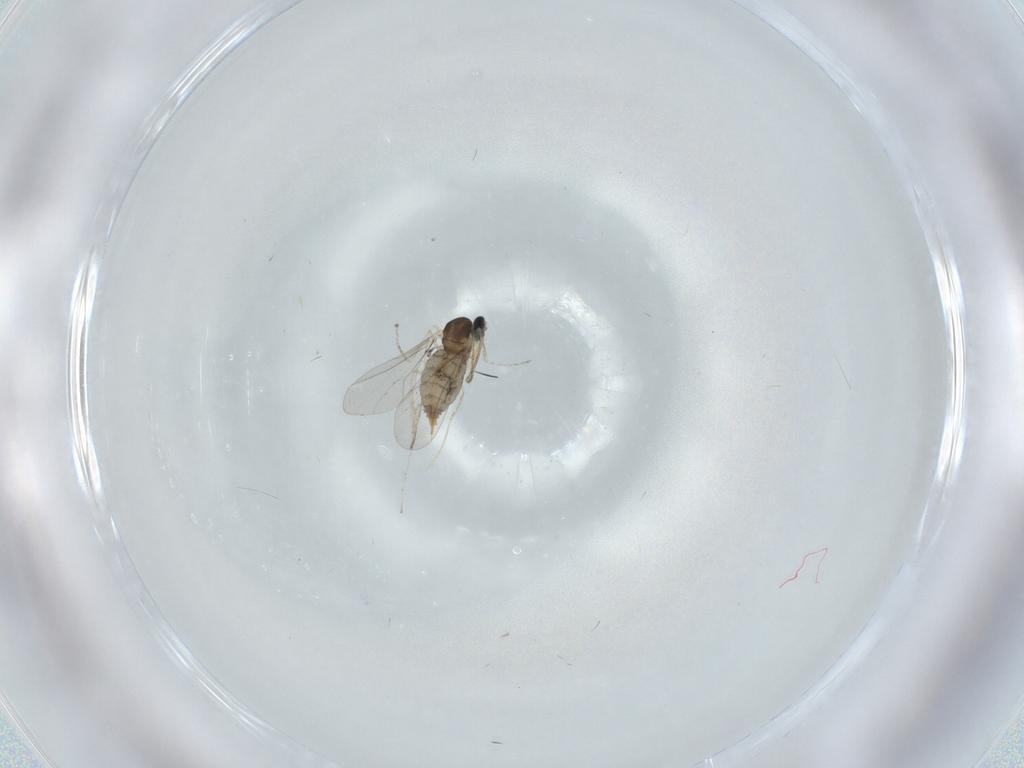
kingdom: Animalia
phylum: Arthropoda
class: Insecta
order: Diptera
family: Cecidomyiidae
